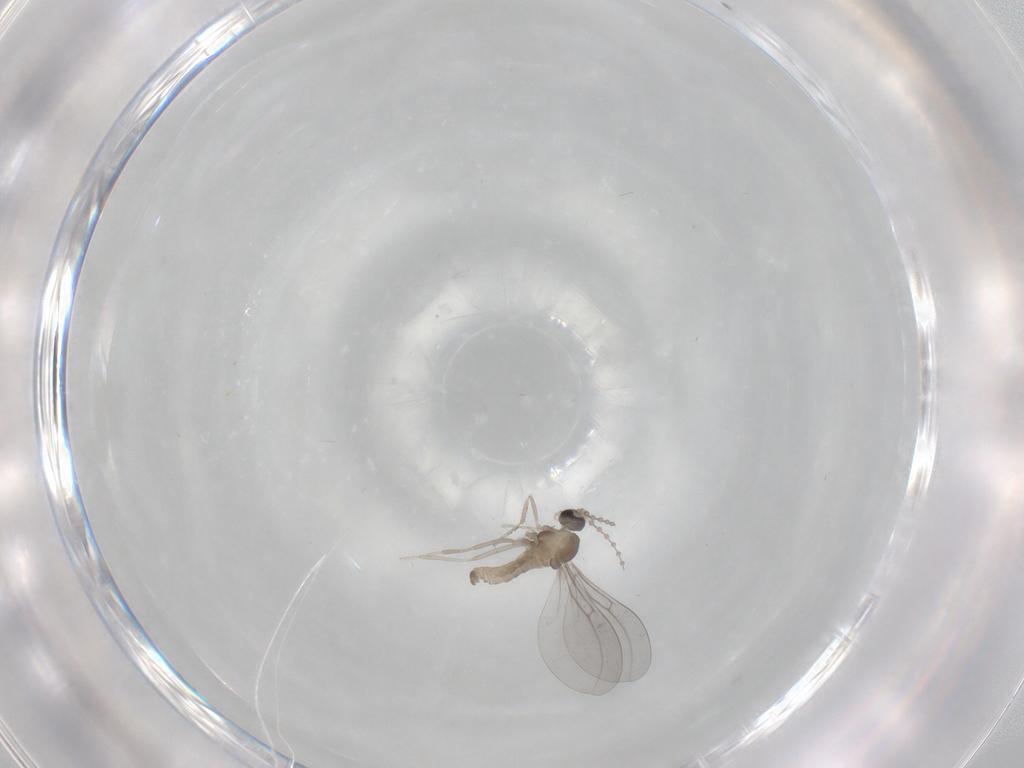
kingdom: Animalia
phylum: Arthropoda
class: Insecta
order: Diptera
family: Cecidomyiidae
